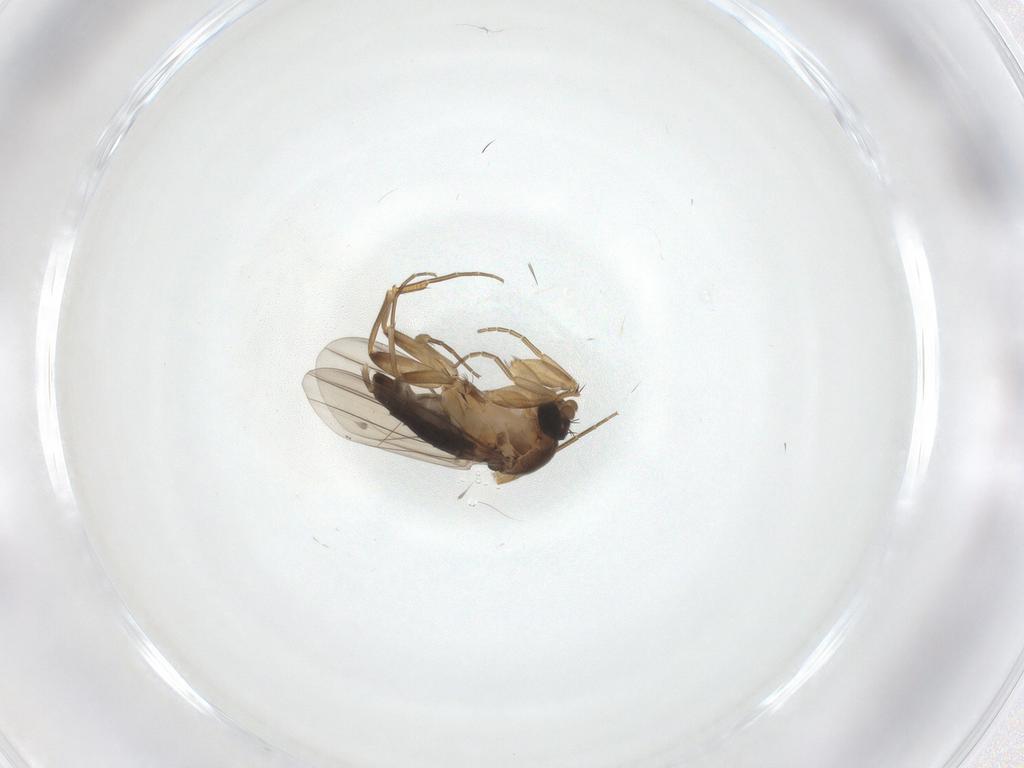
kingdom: Animalia
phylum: Arthropoda
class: Insecta
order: Diptera
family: Phoridae
